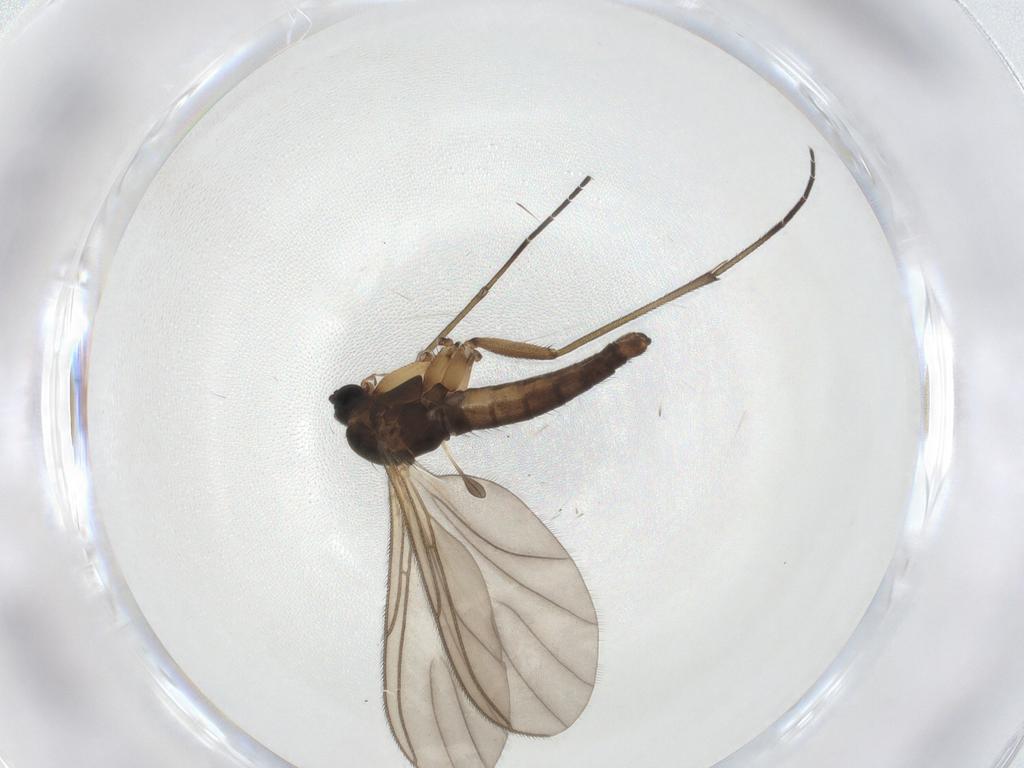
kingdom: Animalia
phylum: Arthropoda
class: Insecta
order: Diptera
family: Sciaridae
